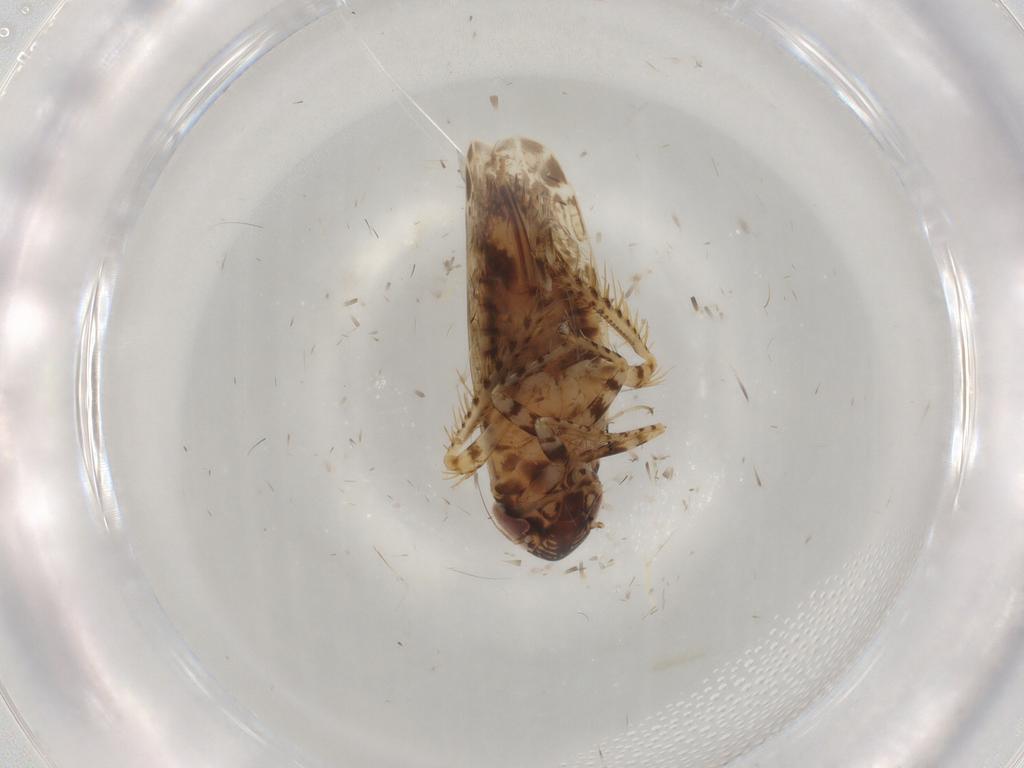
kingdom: Animalia
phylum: Arthropoda
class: Insecta
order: Hemiptera
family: Cicadellidae
